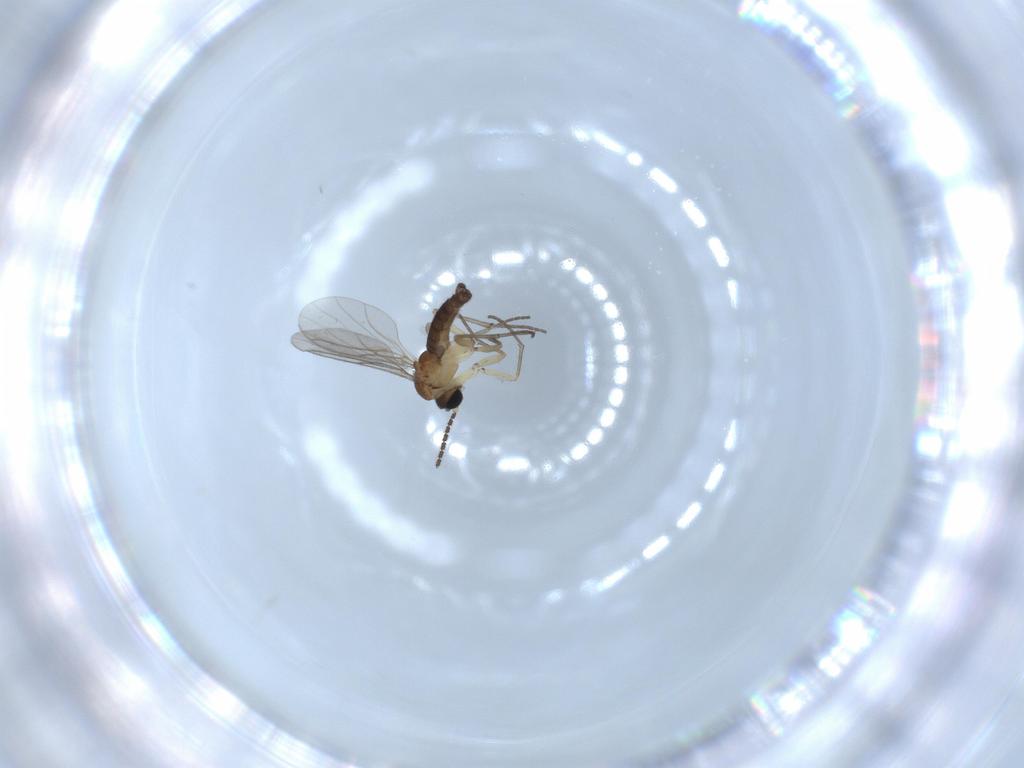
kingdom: Animalia
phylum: Arthropoda
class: Insecta
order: Diptera
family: Sciaridae
